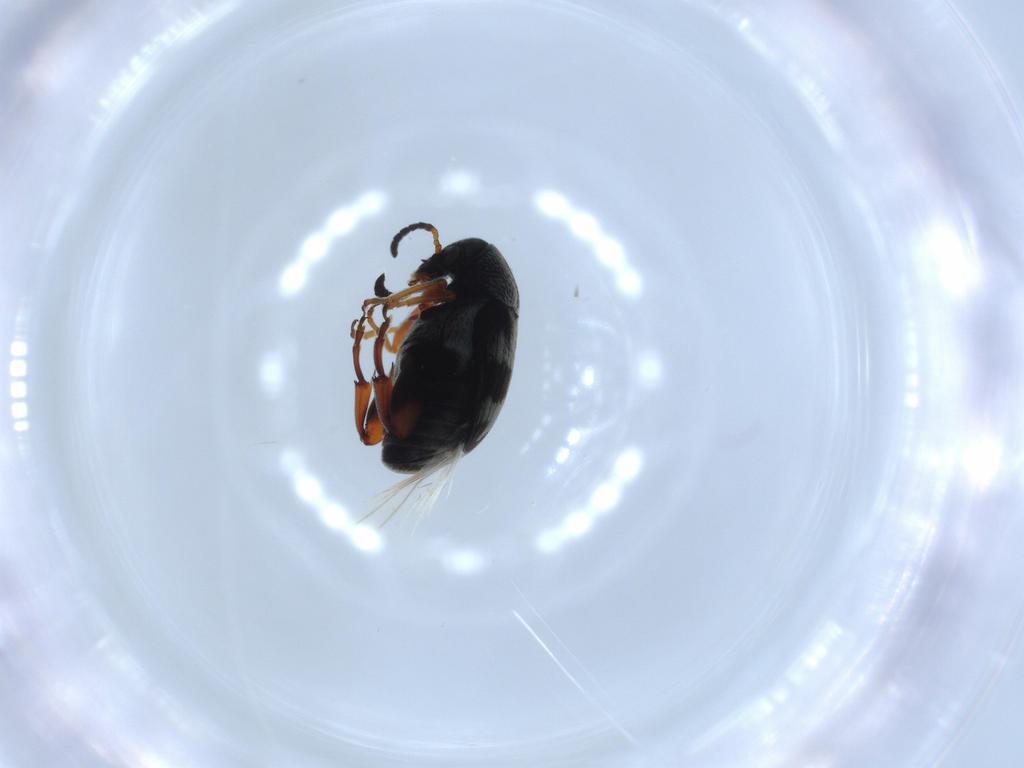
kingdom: Animalia
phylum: Arthropoda
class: Insecta
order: Coleoptera
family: Chrysomelidae
